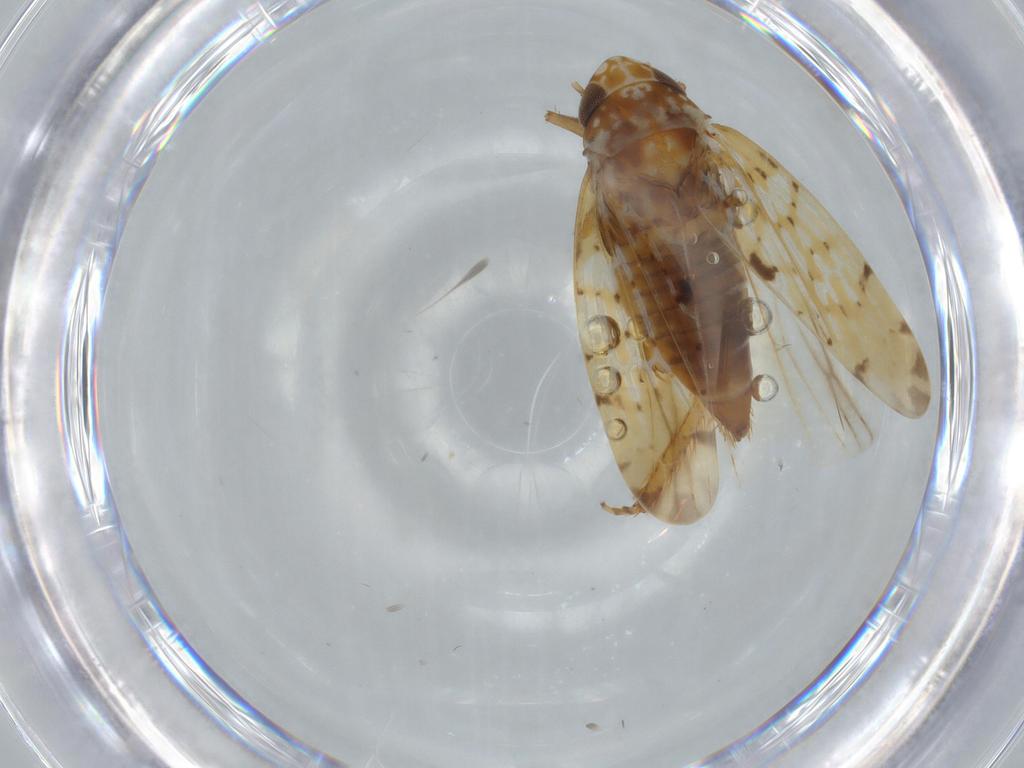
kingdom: Animalia
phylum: Arthropoda
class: Insecta
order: Hemiptera
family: Cicadellidae
